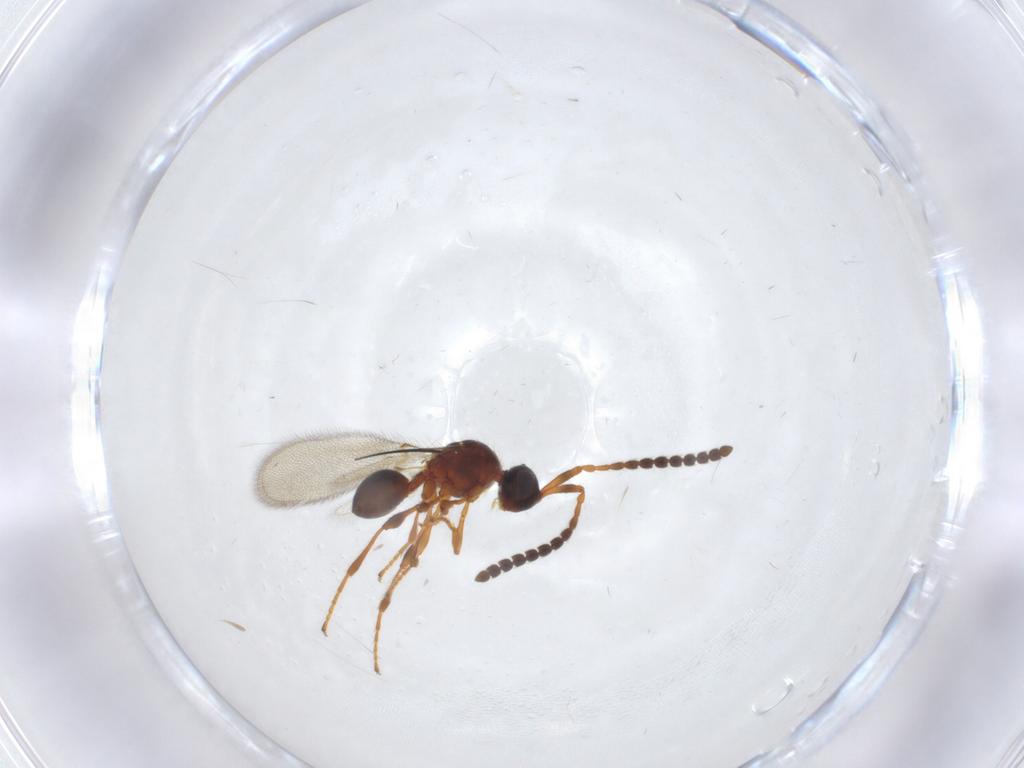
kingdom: Animalia
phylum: Arthropoda
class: Insecta
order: Hymenoptera
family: Diapriidae
